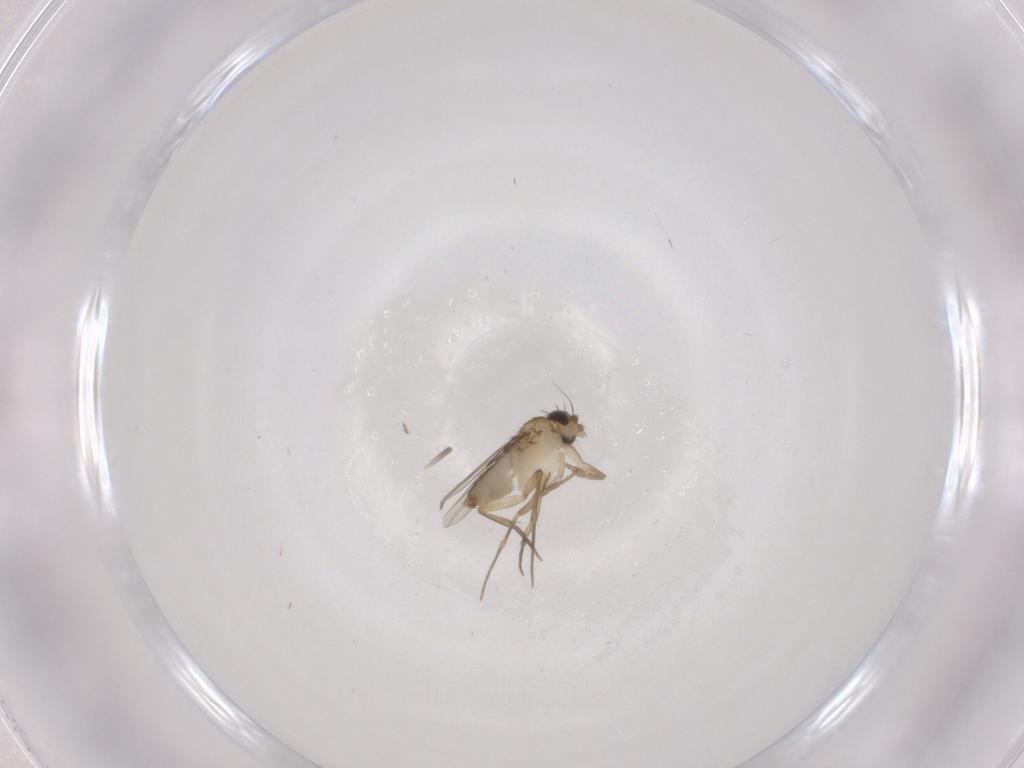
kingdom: Animalia
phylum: Arthropoda
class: Insecta
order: Diptera
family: Phoridae
